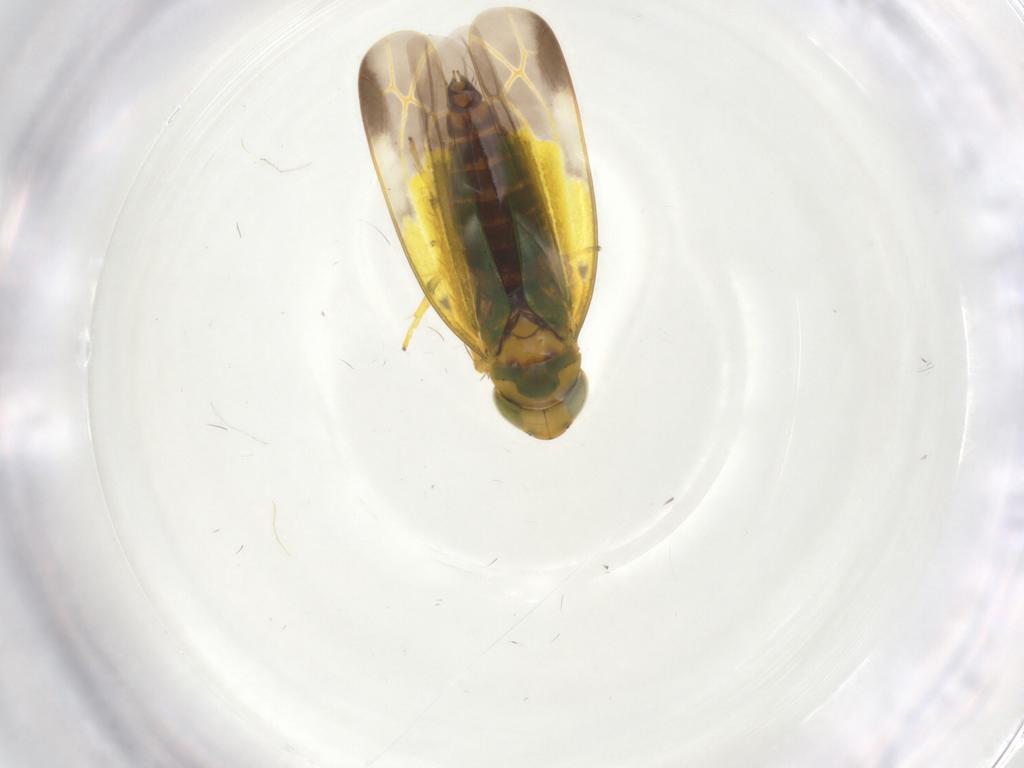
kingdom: Animalia
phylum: Arthropoda
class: Insecta
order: Hemiptera
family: Cicadellidae
